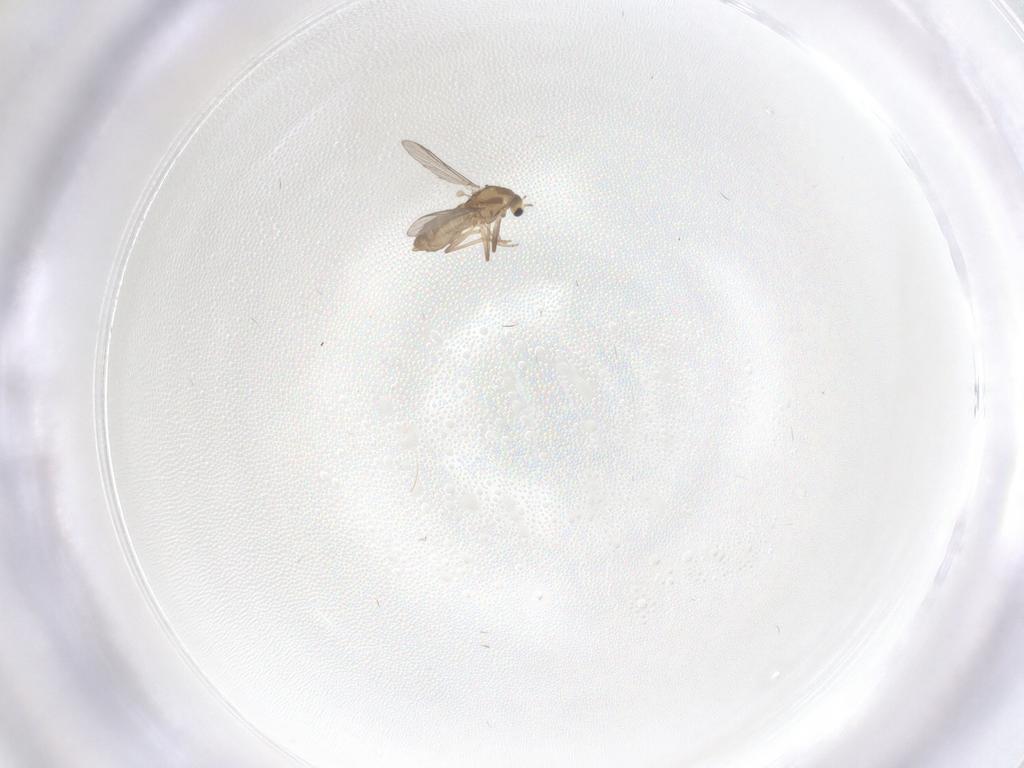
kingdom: Animalia
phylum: Arthropoda
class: Insecta
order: Diptera
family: Chironomidae
